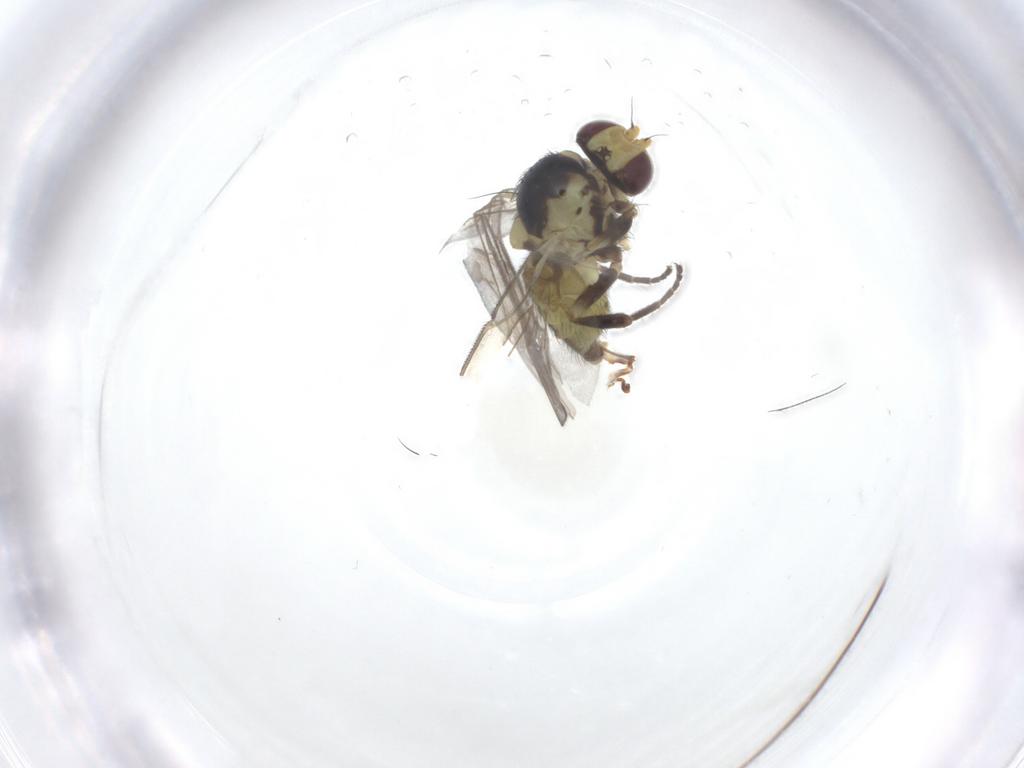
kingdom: Animalia
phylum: Arthropoda
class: Insecta
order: Diptera
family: Agromyzidae
